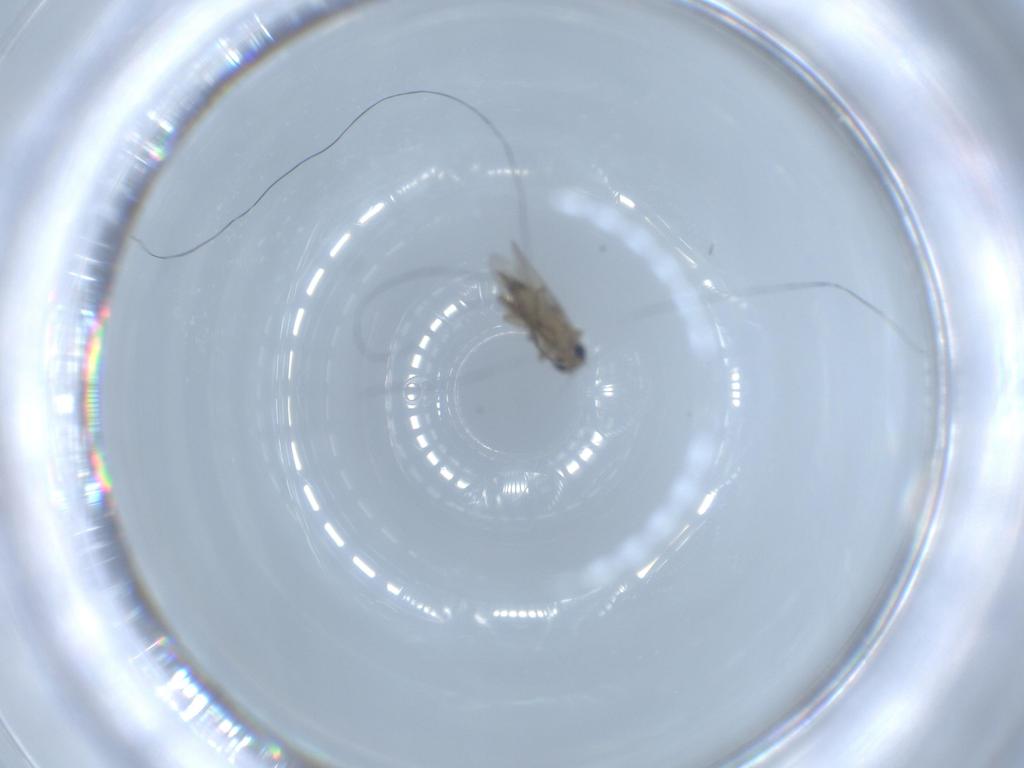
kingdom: Animalia
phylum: Arthropoda
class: Insecta
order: Diptera
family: Phoridae
